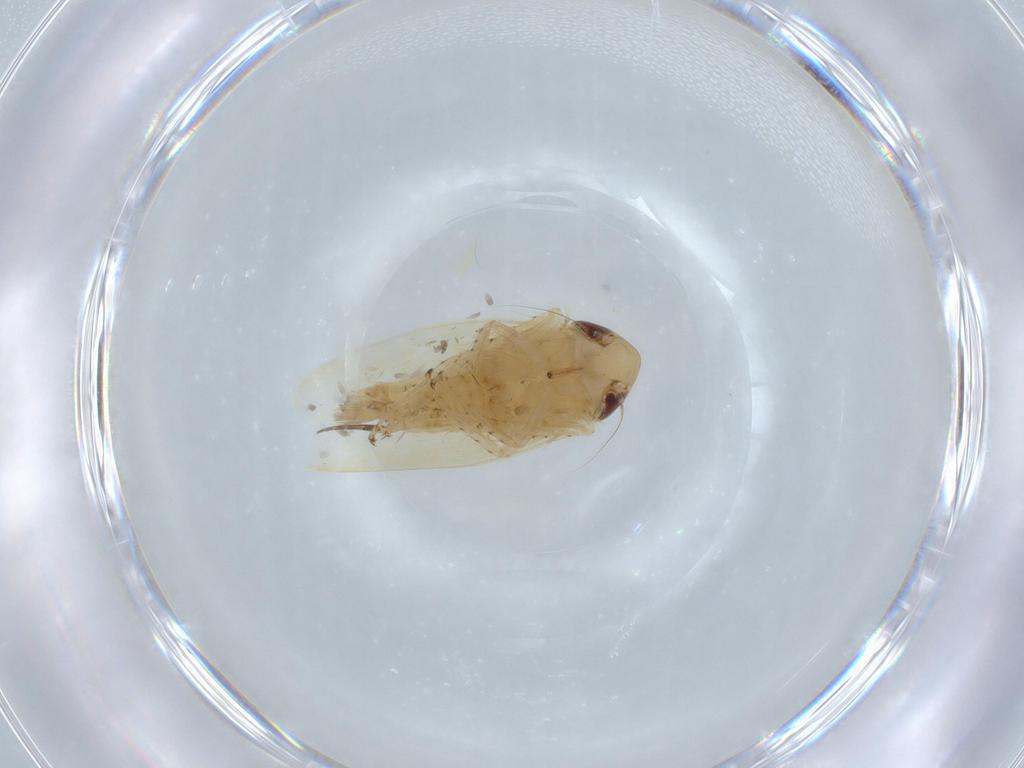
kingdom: Animalia
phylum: Arthropoda
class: Insecta
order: Hemiptera
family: Cicadellidae
